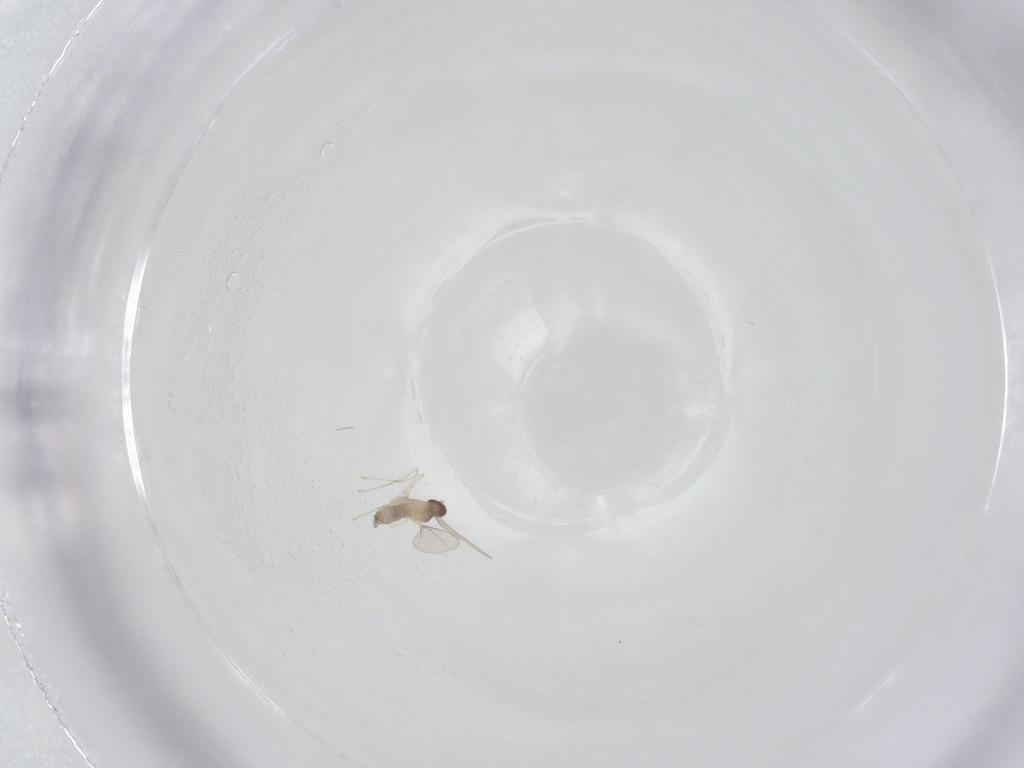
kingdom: Animalia
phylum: Arthropoda
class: Insecta
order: Diptera
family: Cecidomyiidae
